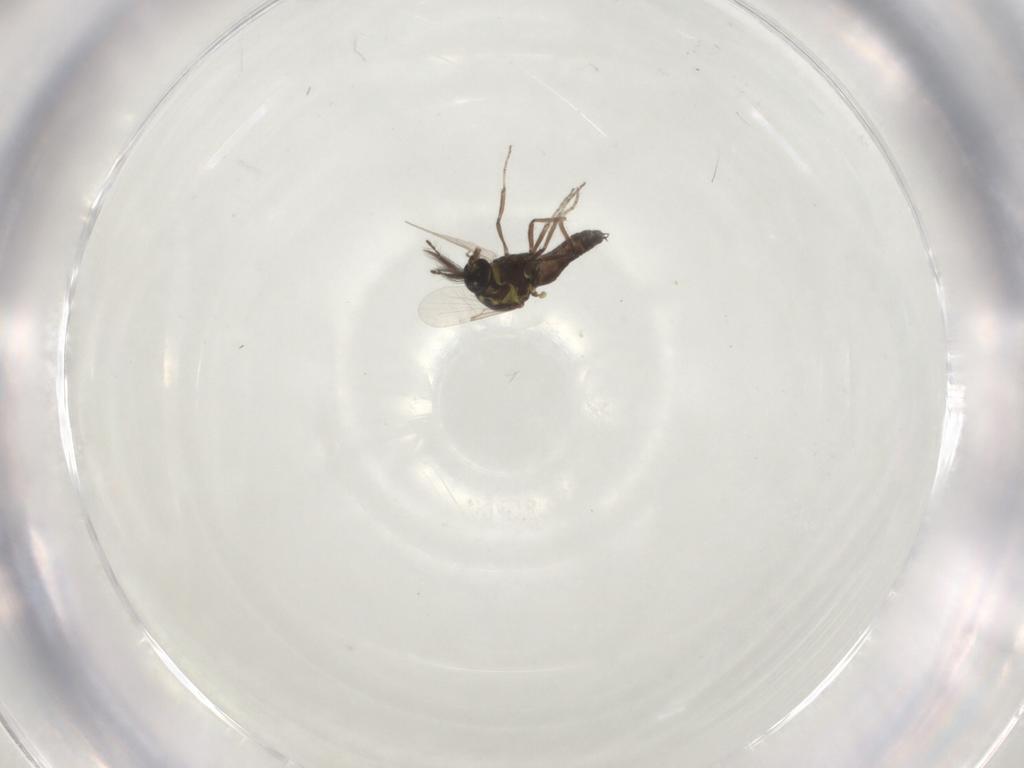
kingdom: Animalia
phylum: Arthropoda
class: Insecta
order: Diptera
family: Ceratopogonidae
